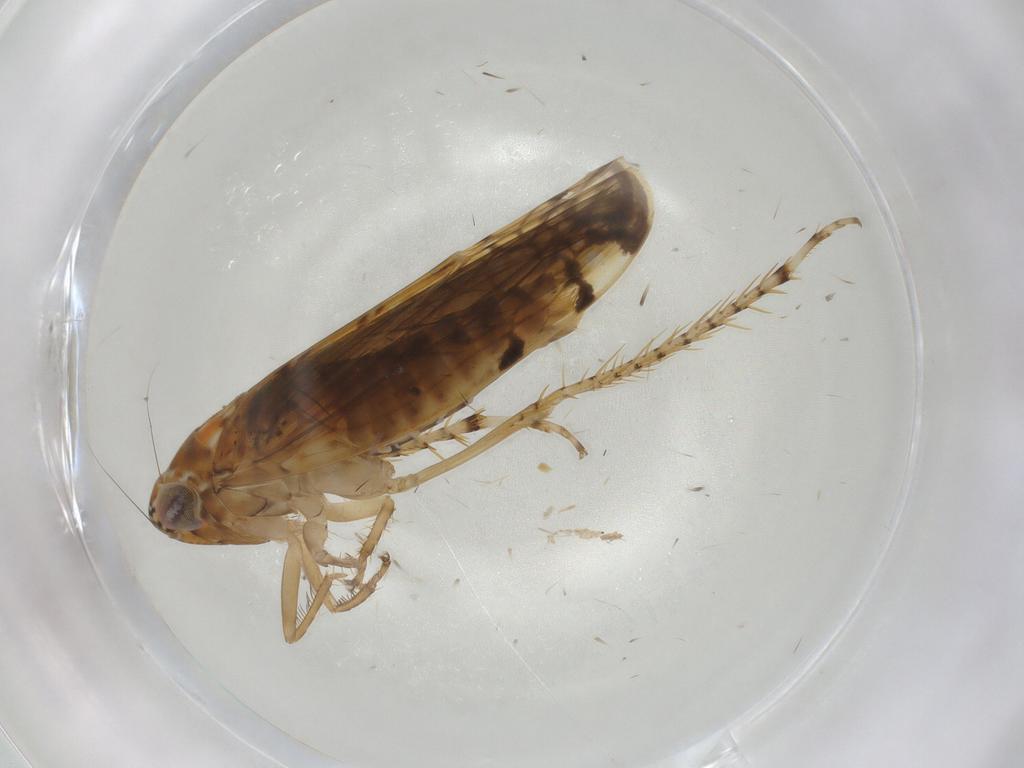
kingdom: Animalia
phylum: Arthropoda
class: Insecta
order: Hemiptera
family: Cicadellidae
